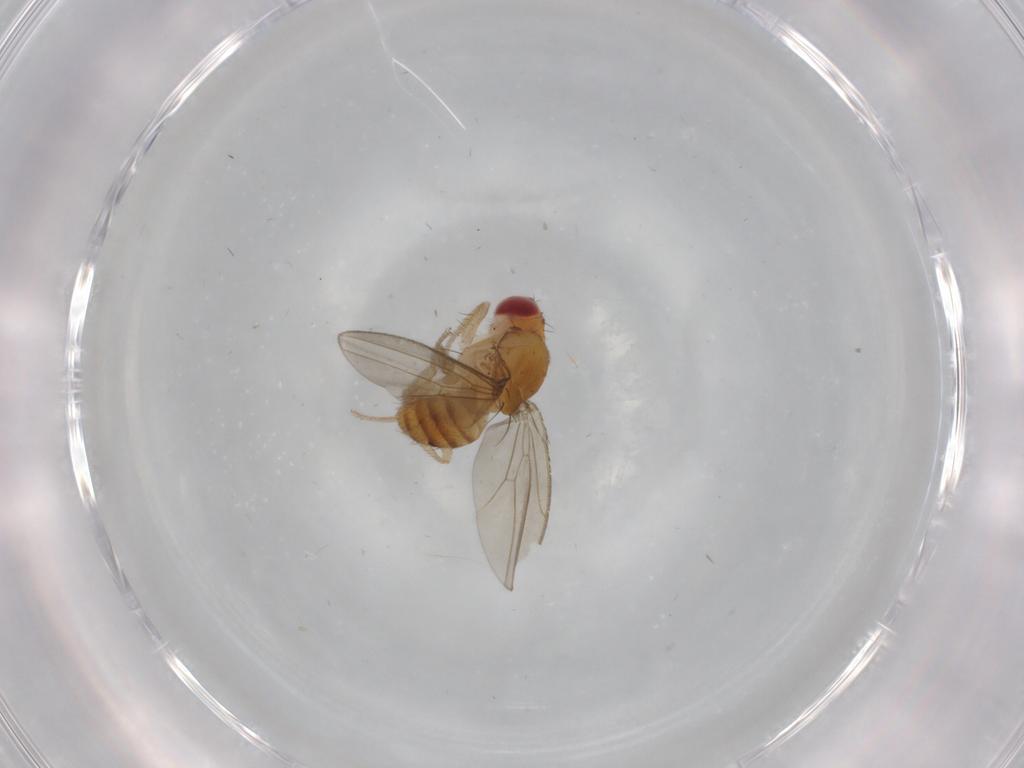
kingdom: Animalia
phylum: Arthropoda
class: Insecta
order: Diptera
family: Drosophilidae
